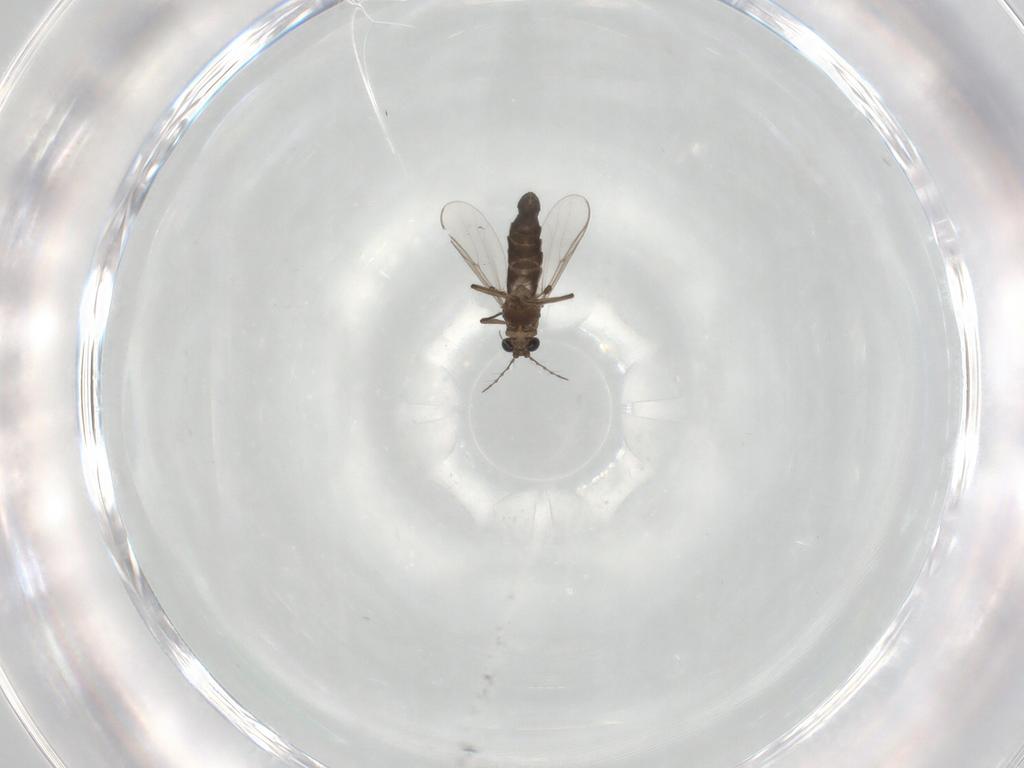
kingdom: Animalia
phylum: Arthropoda
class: Insecta
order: Diptera
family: Chironomidae
